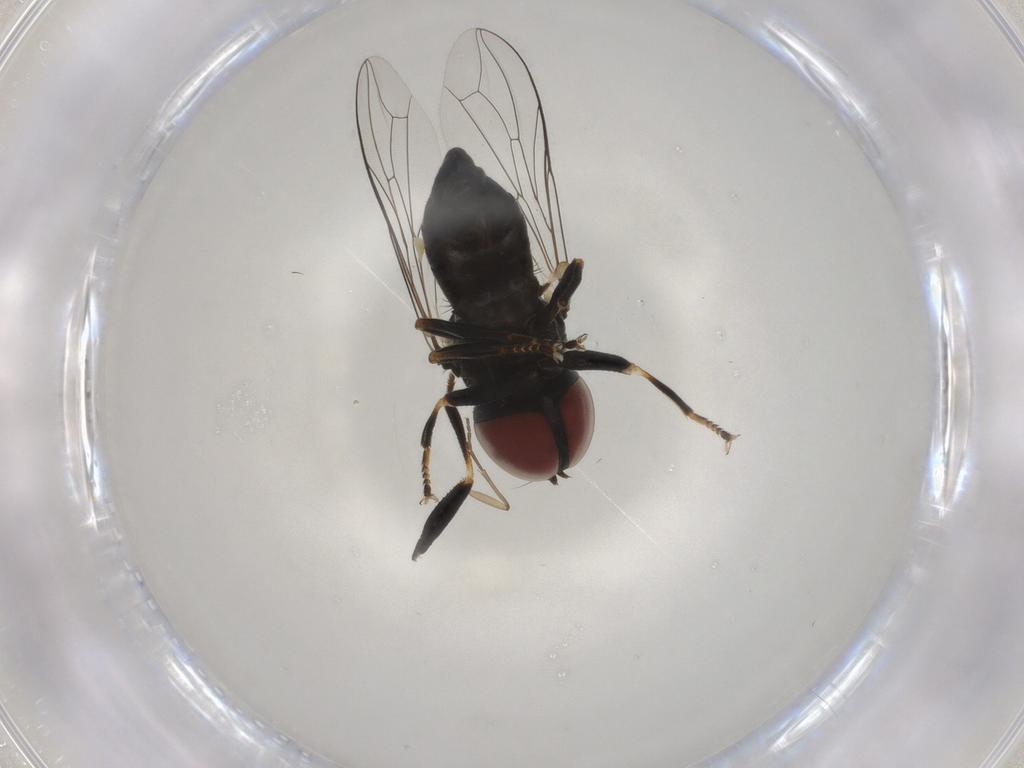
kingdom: Animalia
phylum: Arthropoda
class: Insecta
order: Diptera
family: Pipunculidae
